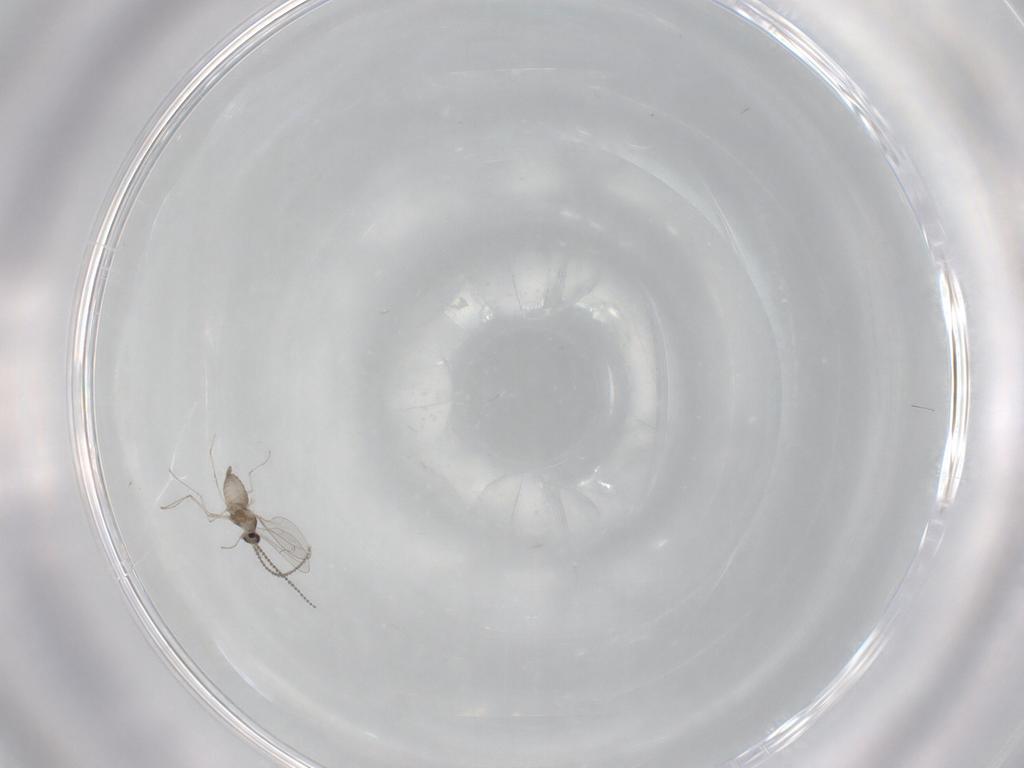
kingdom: Animalia
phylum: Arthropoda
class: Insecta
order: Diptera
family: Cecidomyiidae
